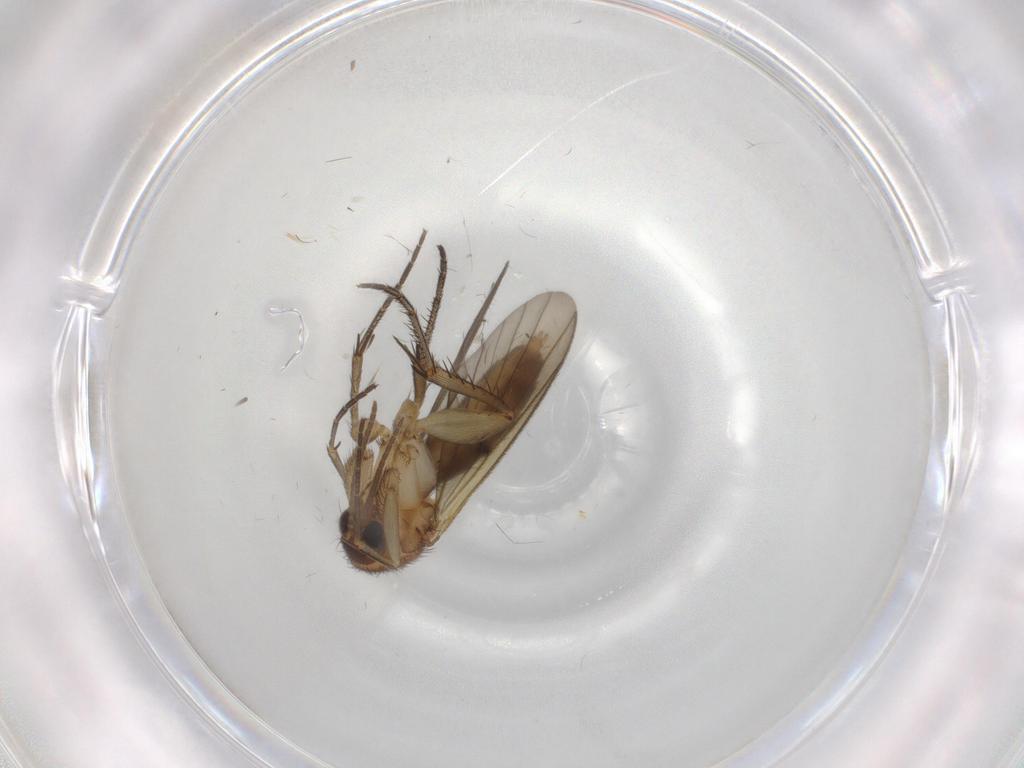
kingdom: Animalia
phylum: Arthropoda
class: Insecta
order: Diptera
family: Mycetophilidae
